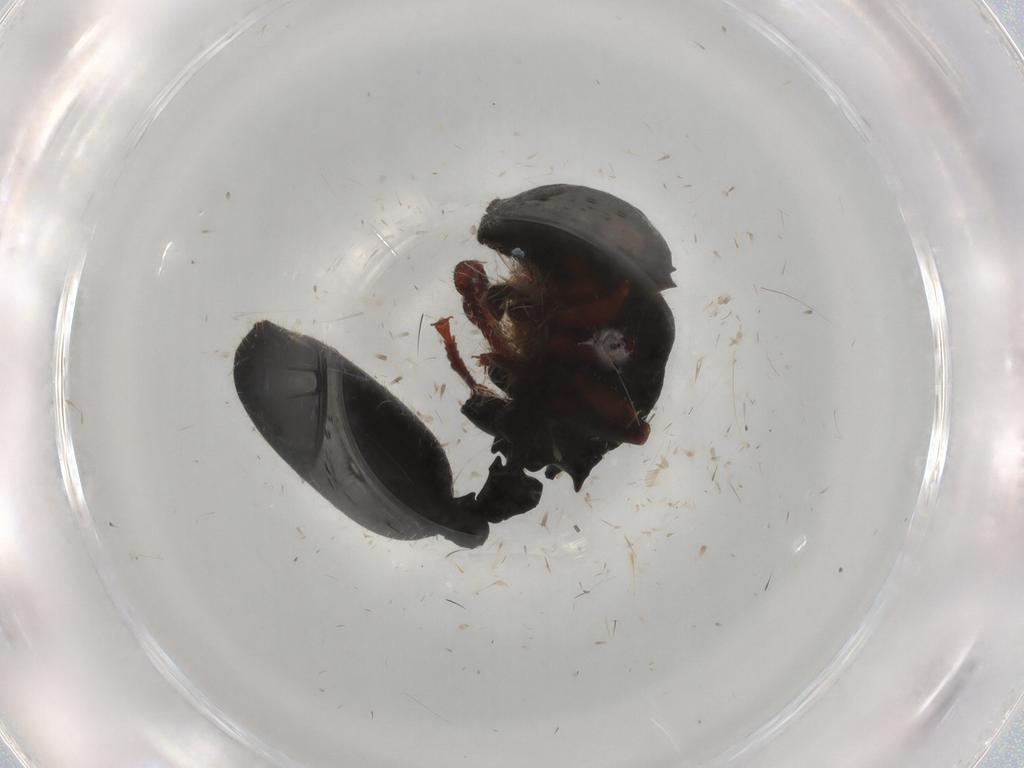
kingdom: Animalia
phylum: Arthropoda
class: Insecta
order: Hymenoptera
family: Formicidae
